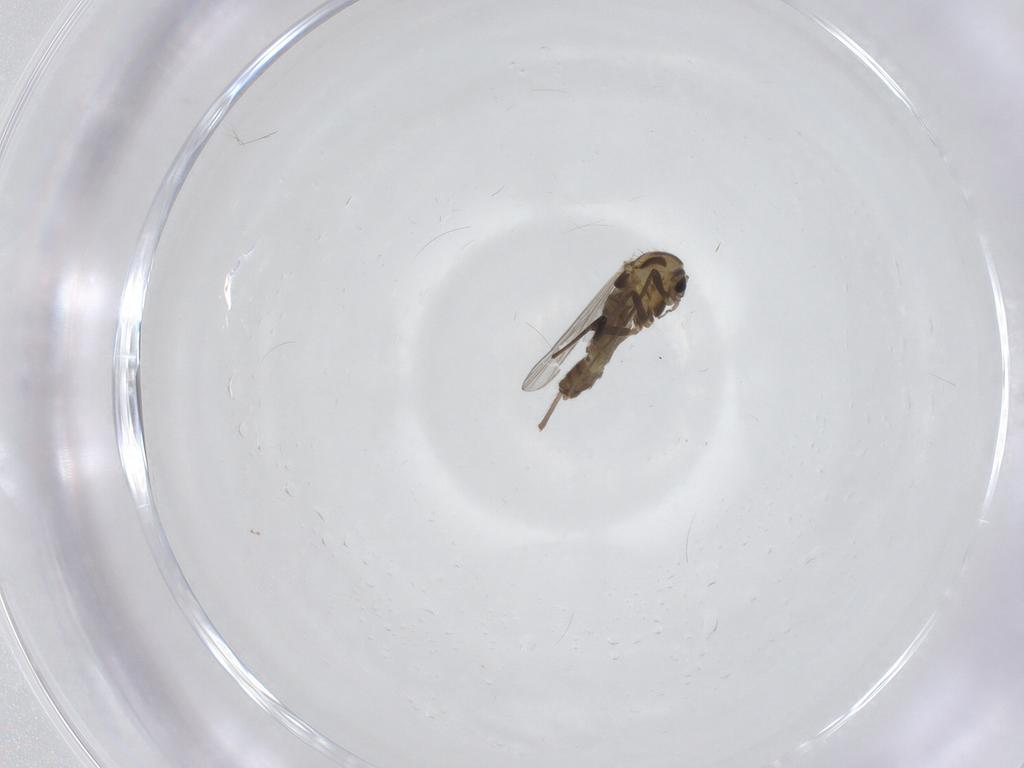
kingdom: Animalia
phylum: Arthropoda
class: Insecta
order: Diptera
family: Chironomidae
